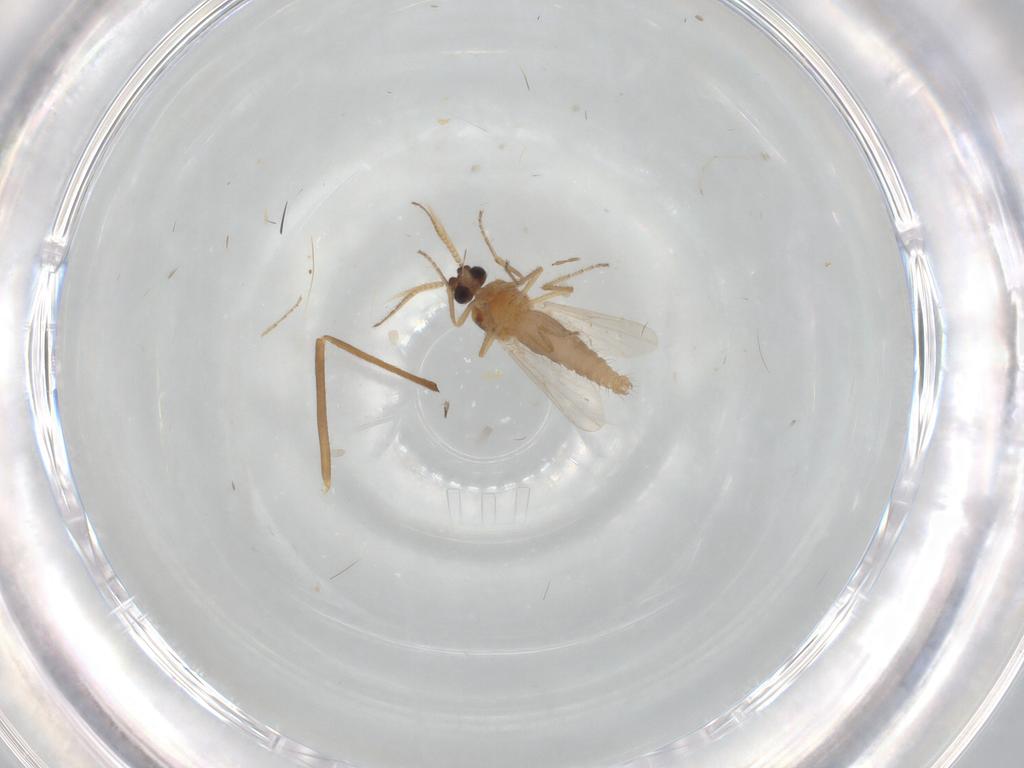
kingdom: Animalia
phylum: Arthropoda
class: Insecta
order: Diptera
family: Ceratopogonidae
